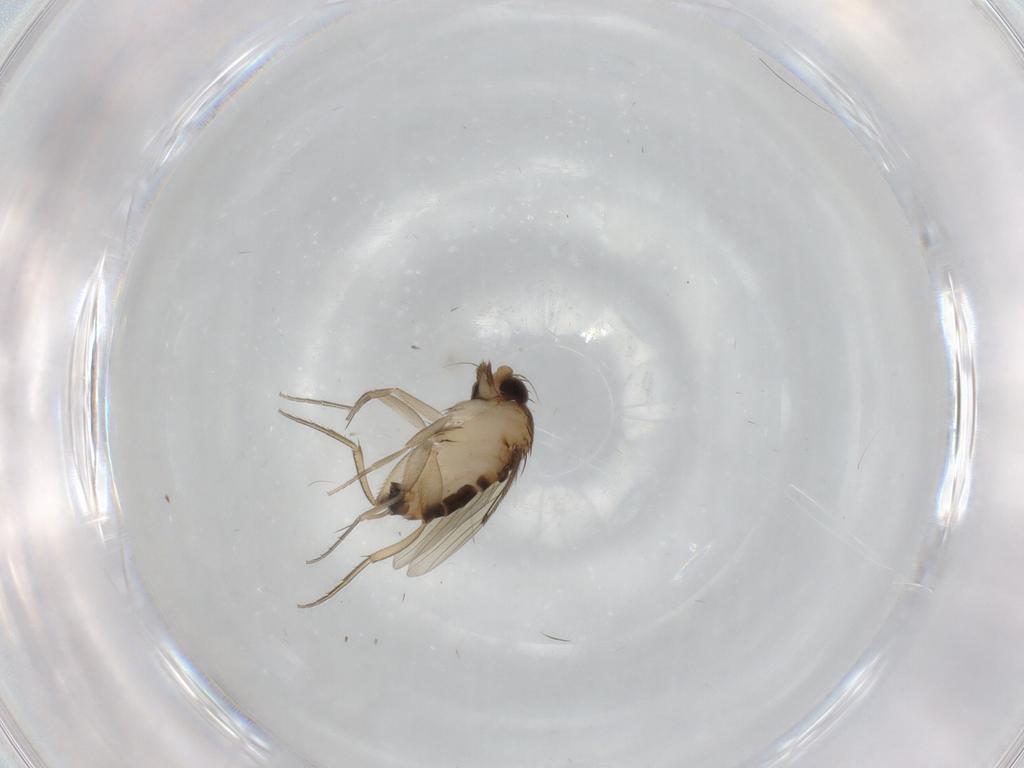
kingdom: Animalia
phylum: Arthropoda
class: Insecta
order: Diptera
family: Phoridae
